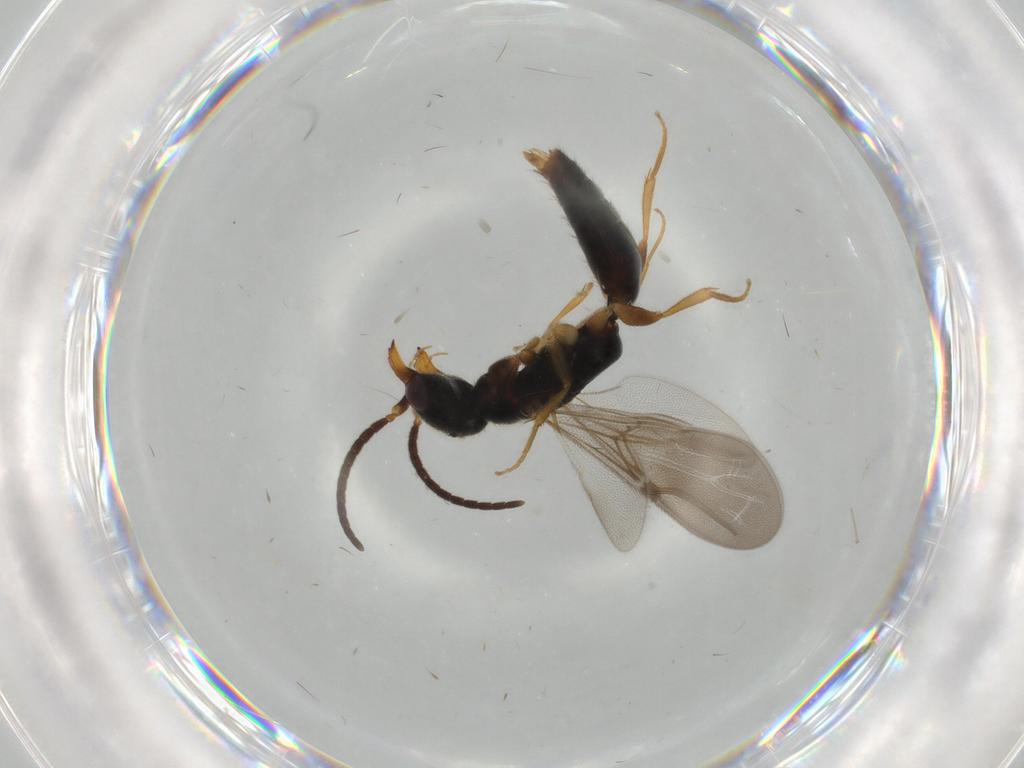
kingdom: Animalia
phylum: Arthropoda
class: Insecta
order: Hymenoptera
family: Bethylidae
